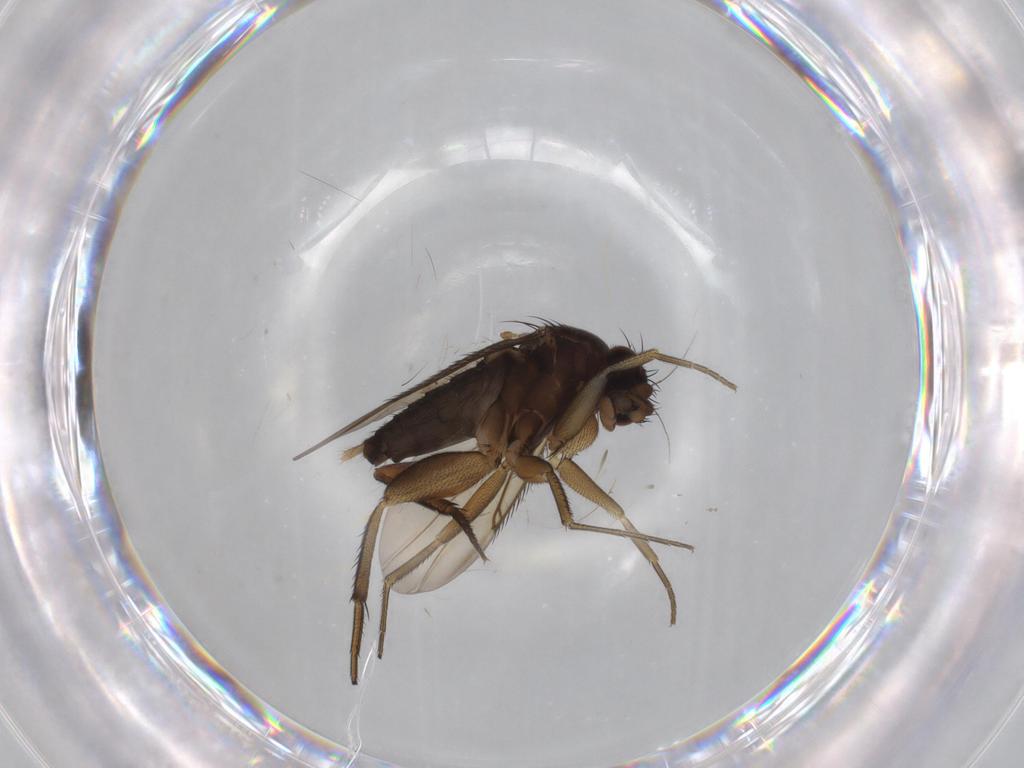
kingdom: Animalia
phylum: Arthropoda
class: Insecta
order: Diptera
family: Phoridae
